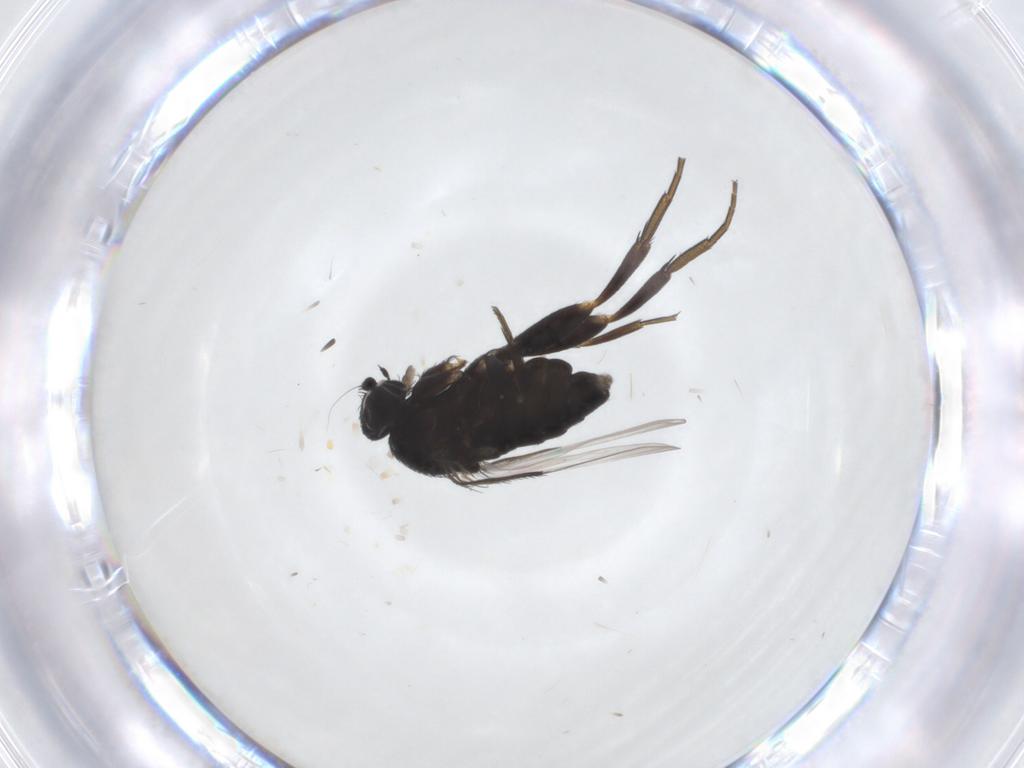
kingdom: Animalia
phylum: Arthropoda
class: Insecta
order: Diptera
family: Phoridae
